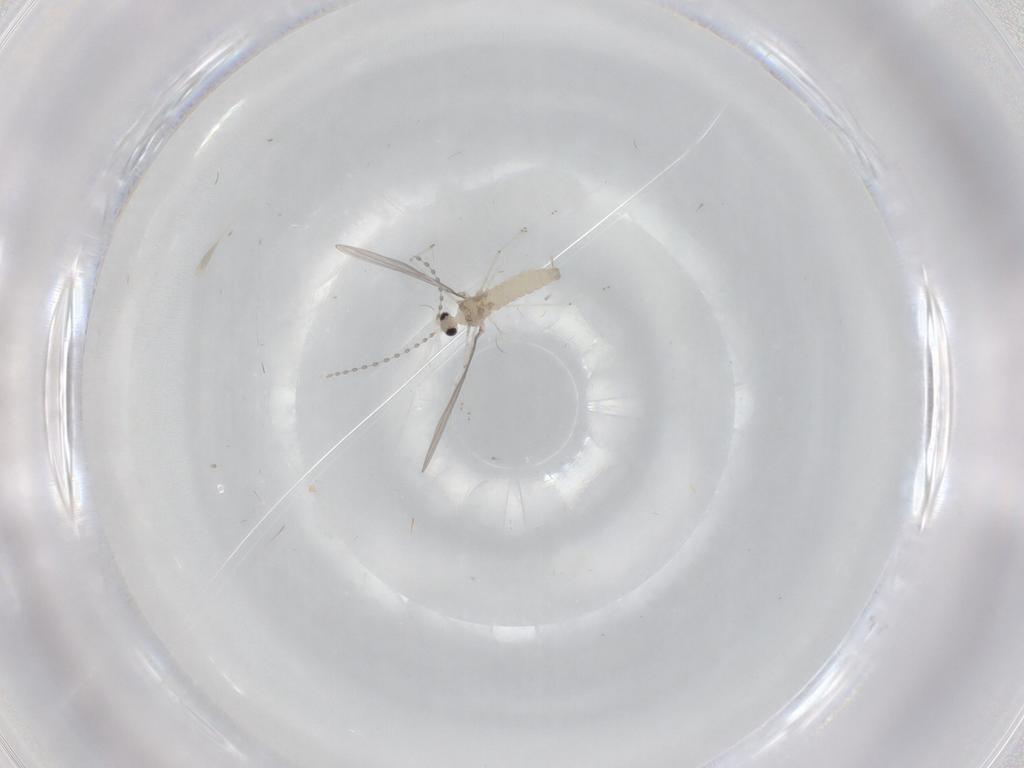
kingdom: Animalia
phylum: Arthropoda
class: Insecta
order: Diptera
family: Cecidomyiidae
